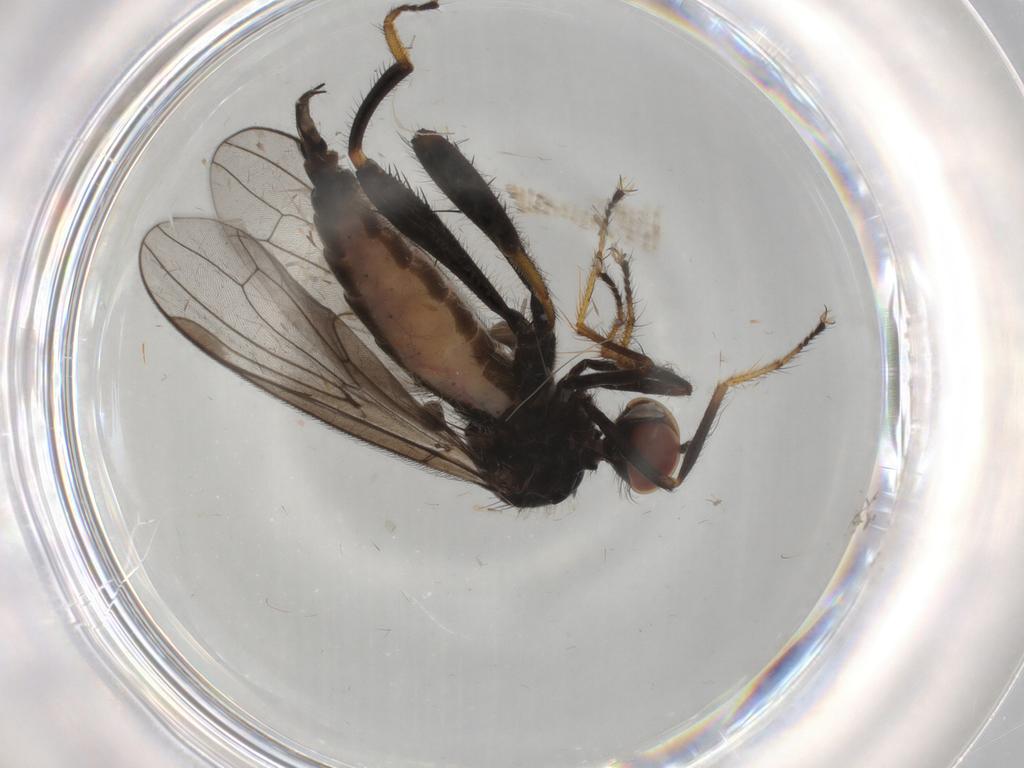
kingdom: Animalia
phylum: Arthropoda
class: Insecta
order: Diptera
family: Hybotidae
